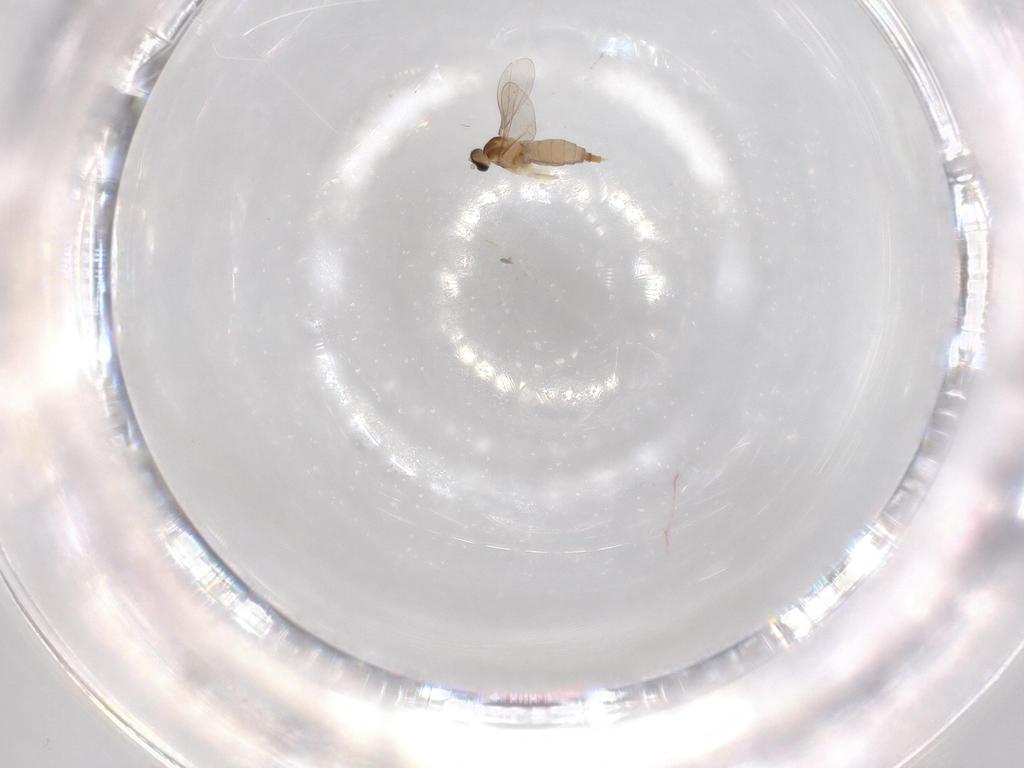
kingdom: Animalia
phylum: Arthropoda
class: Insecta
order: Diptera
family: Sciaridae
